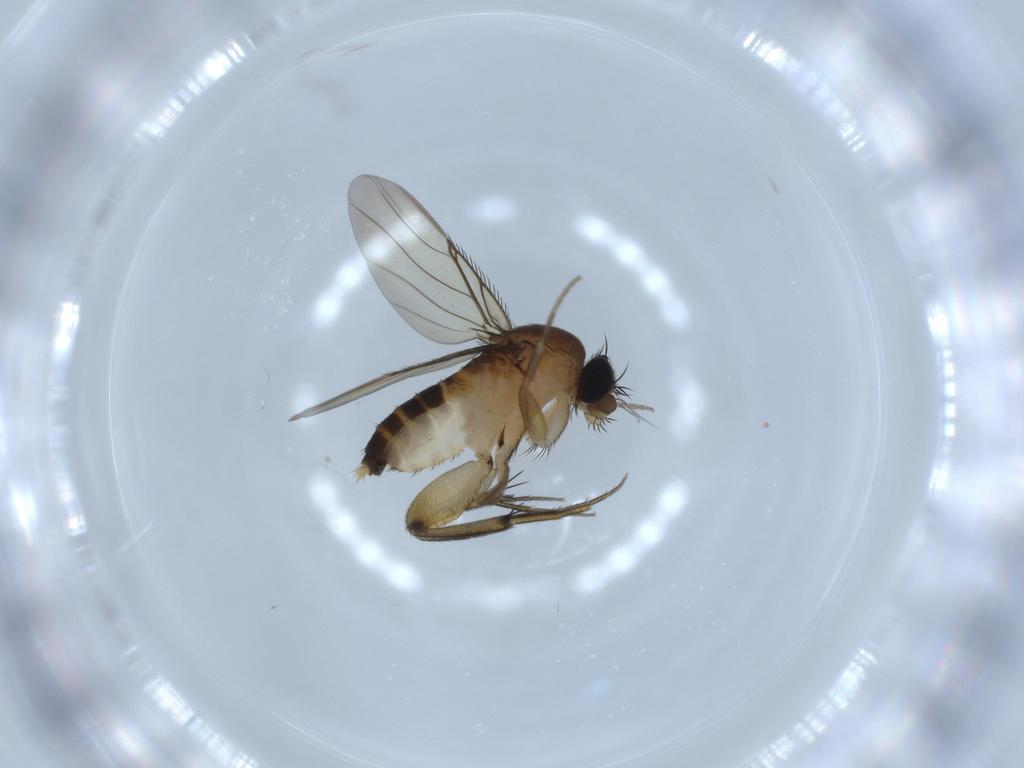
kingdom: Animalia
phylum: Arthropoda
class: Insecta
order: Diptera
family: Phoridae
